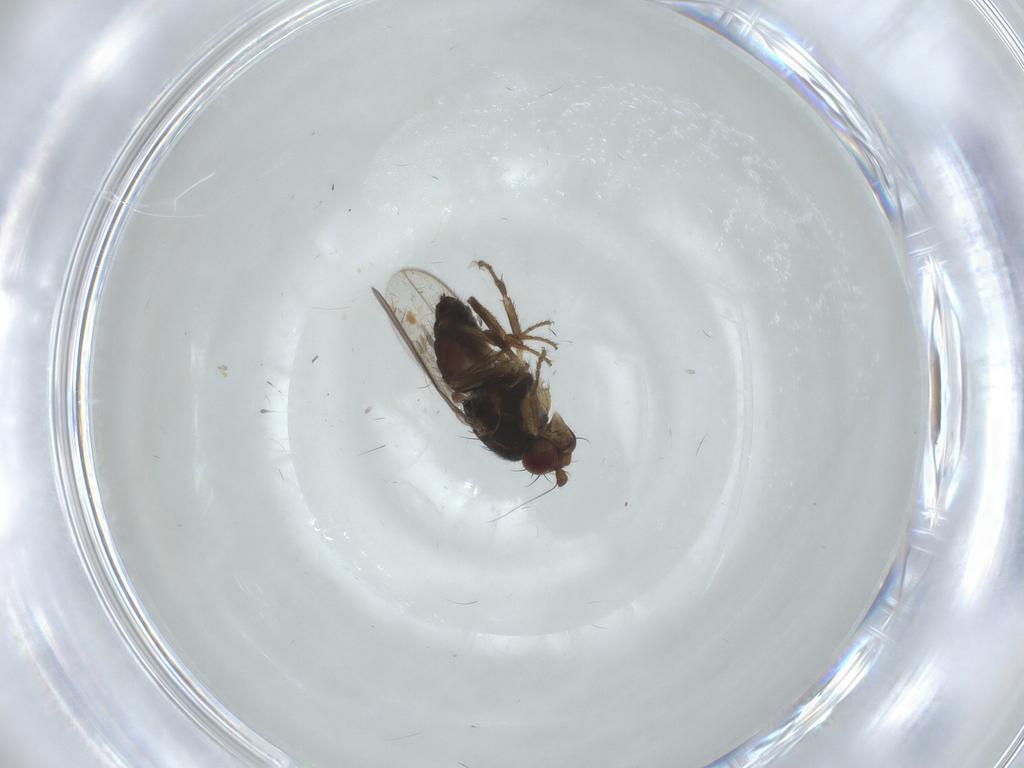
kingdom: Animalia
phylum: Arthropoda
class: Insecta
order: Diptera
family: Sphaeroceridae
